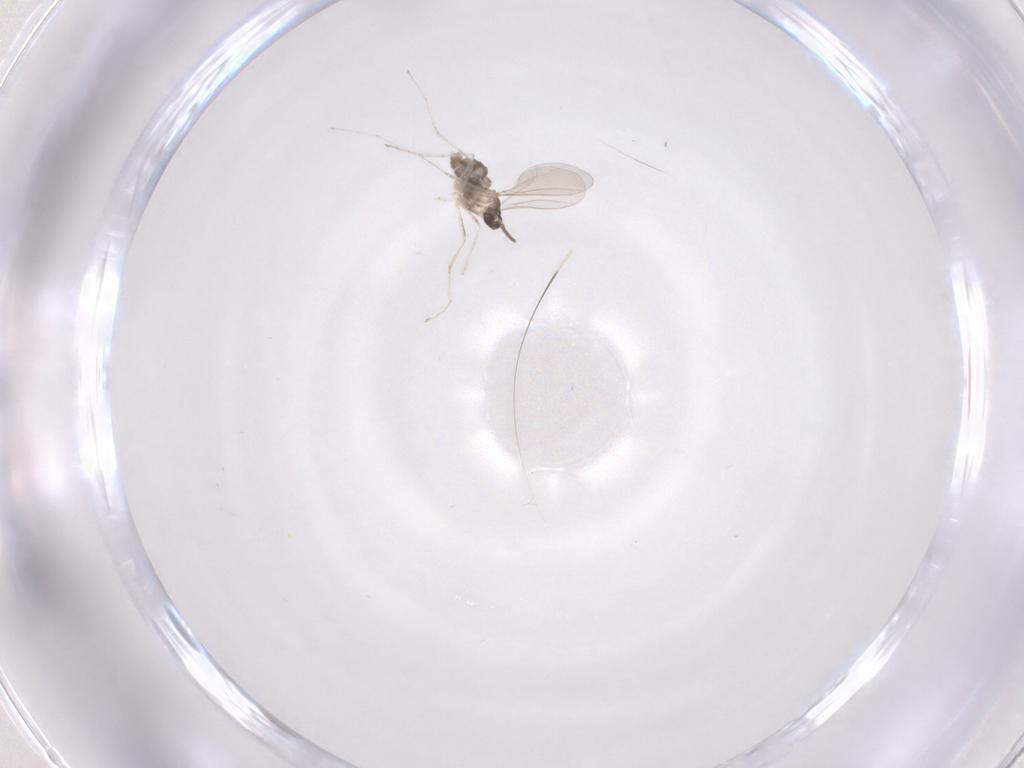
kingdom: Animalia
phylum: Arthropoda
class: Insecta
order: Diptera
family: Cecidomyiidae
